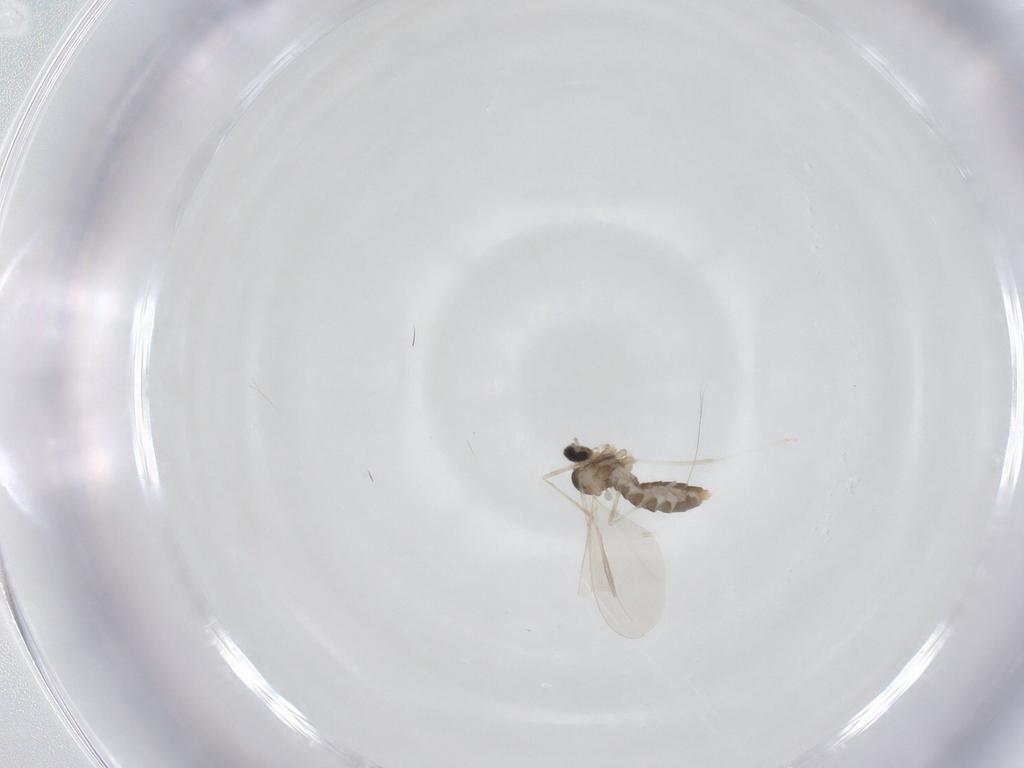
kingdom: Animalia
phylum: Arthropoda
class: Insecta
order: Diptera
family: Cecidomyiidae
